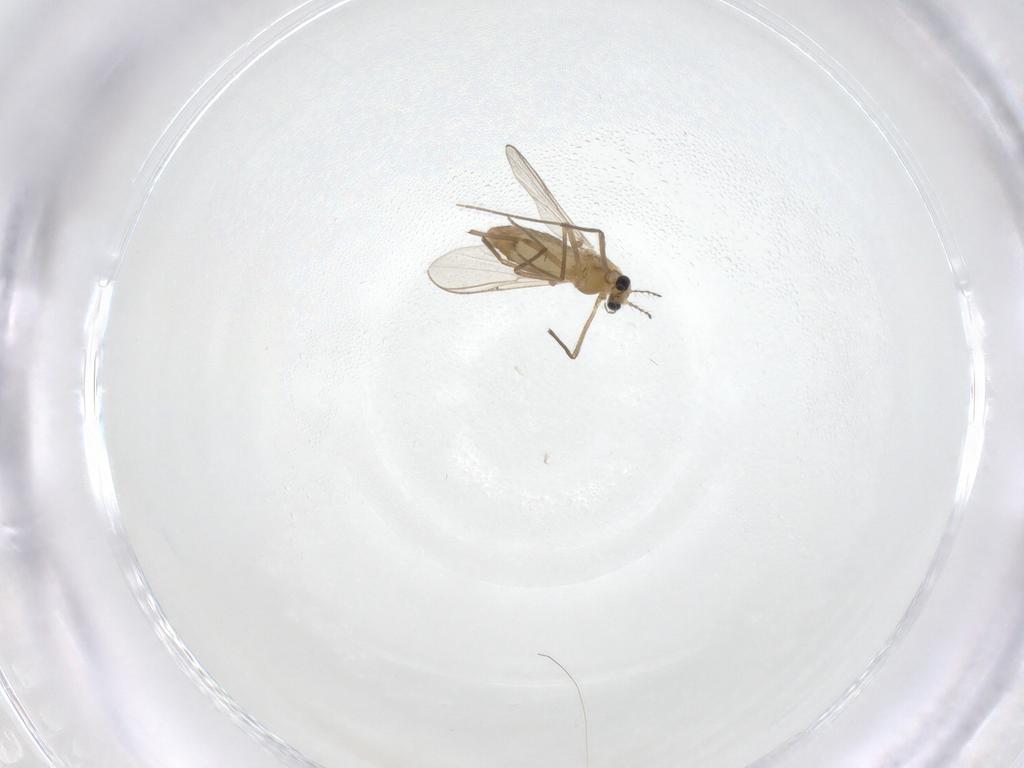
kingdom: Animalia
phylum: Arthropoda
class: Insecta
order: Diptera
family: Chironomidae
